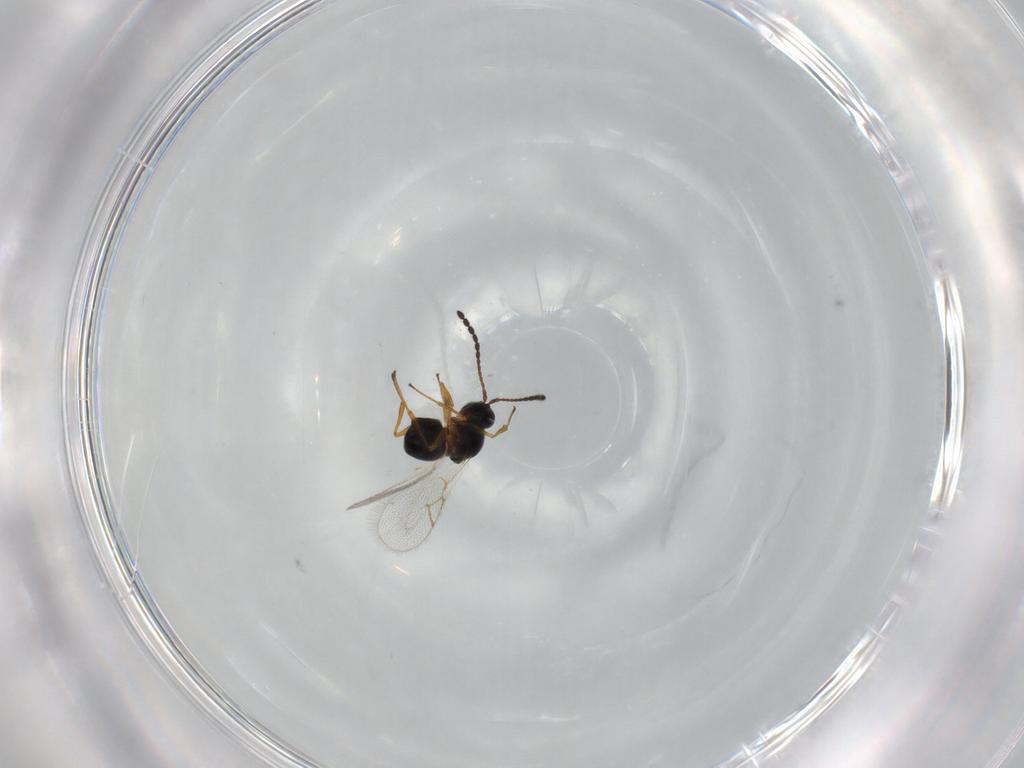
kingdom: Animalia
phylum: Arthropoda
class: Insecta
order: Hymenoptera
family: Figitidae
